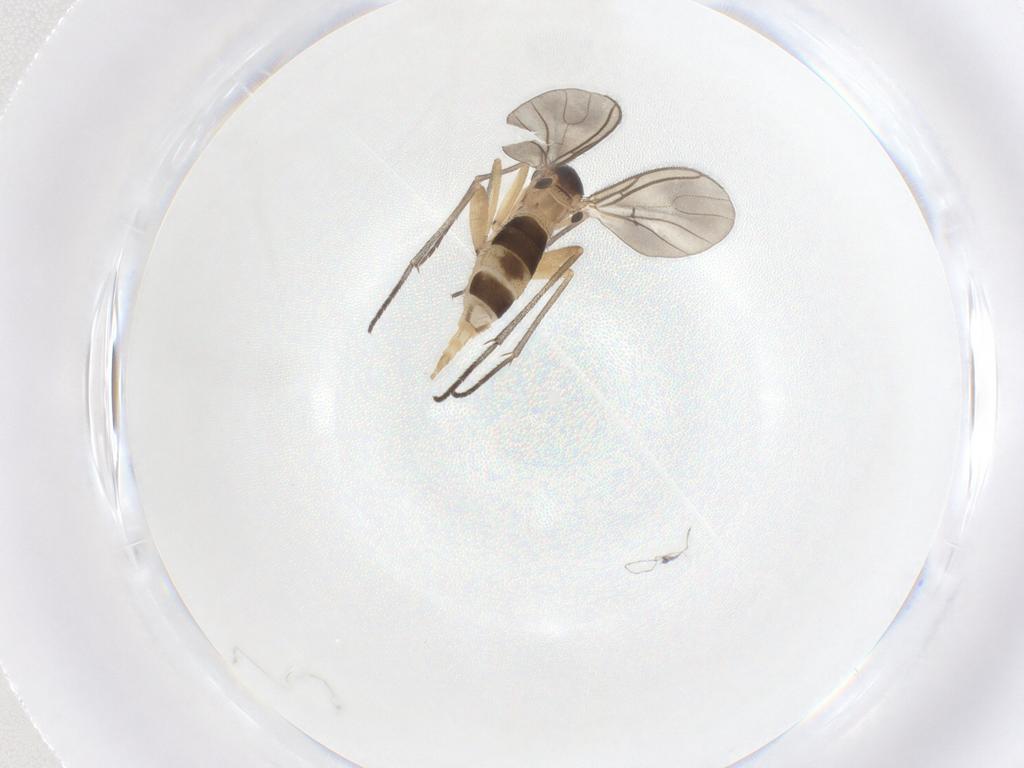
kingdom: Animalia
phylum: Arthropoda
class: Insecta
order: Diptera
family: Sciaridae
